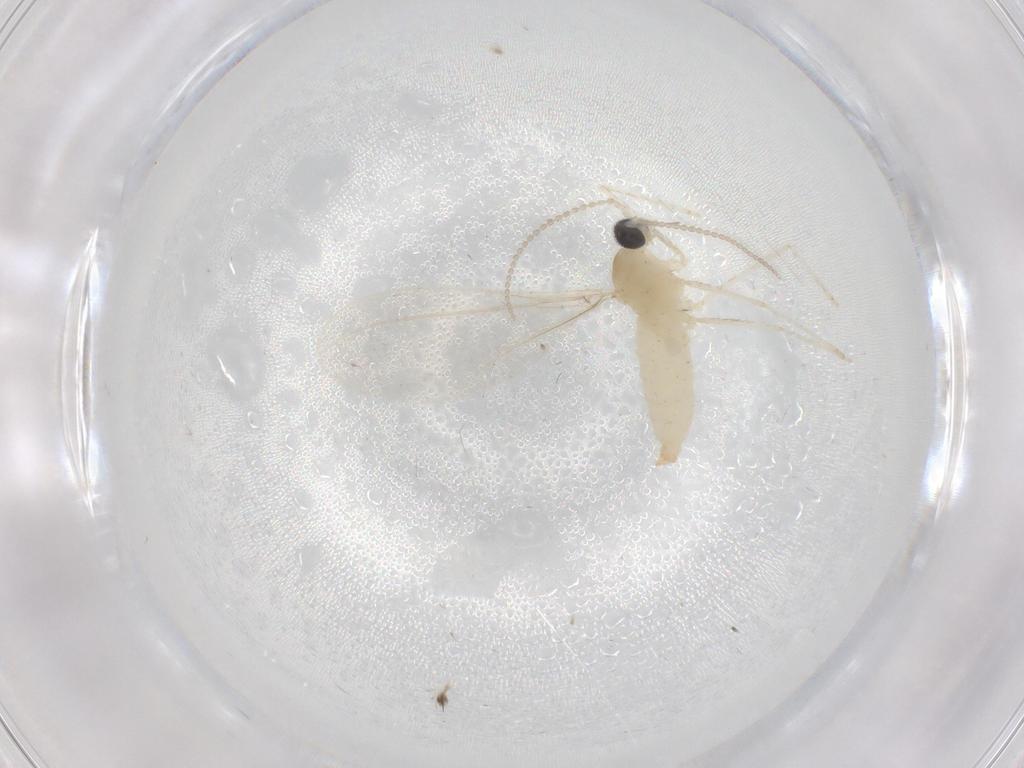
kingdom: Animalia
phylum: Arthropoda
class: Insecta
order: Diptera
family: Cecidomyiidae
